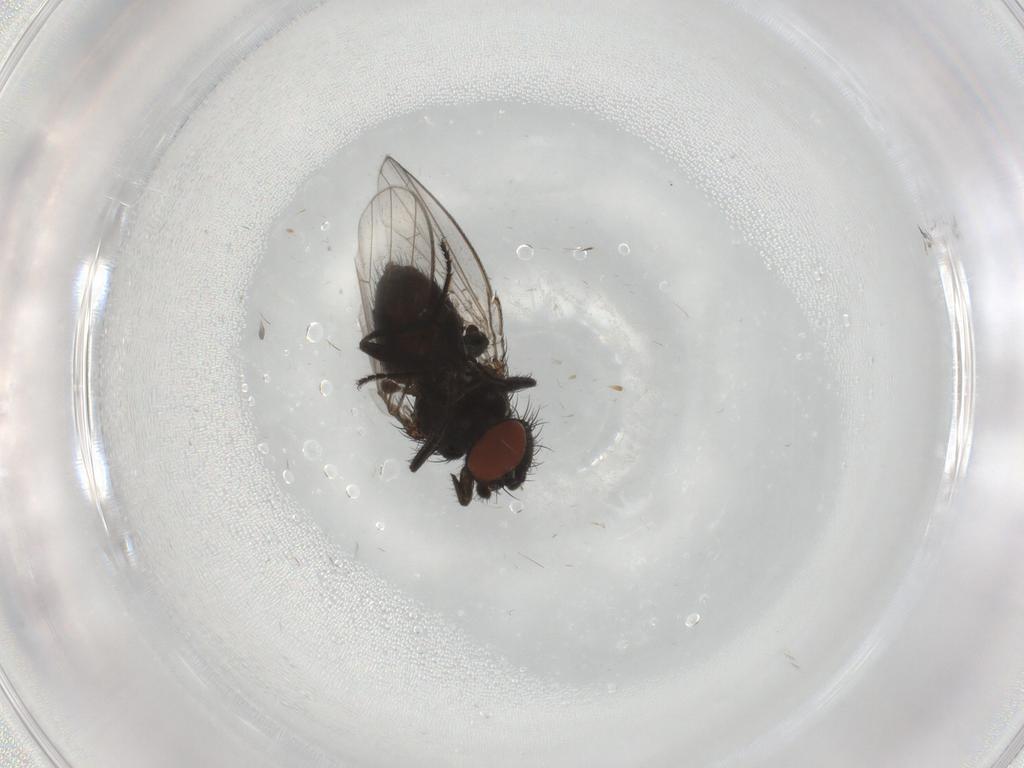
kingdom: Animalia
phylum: Arthropoda
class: Insecta
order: Diptera
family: Milichiidae
